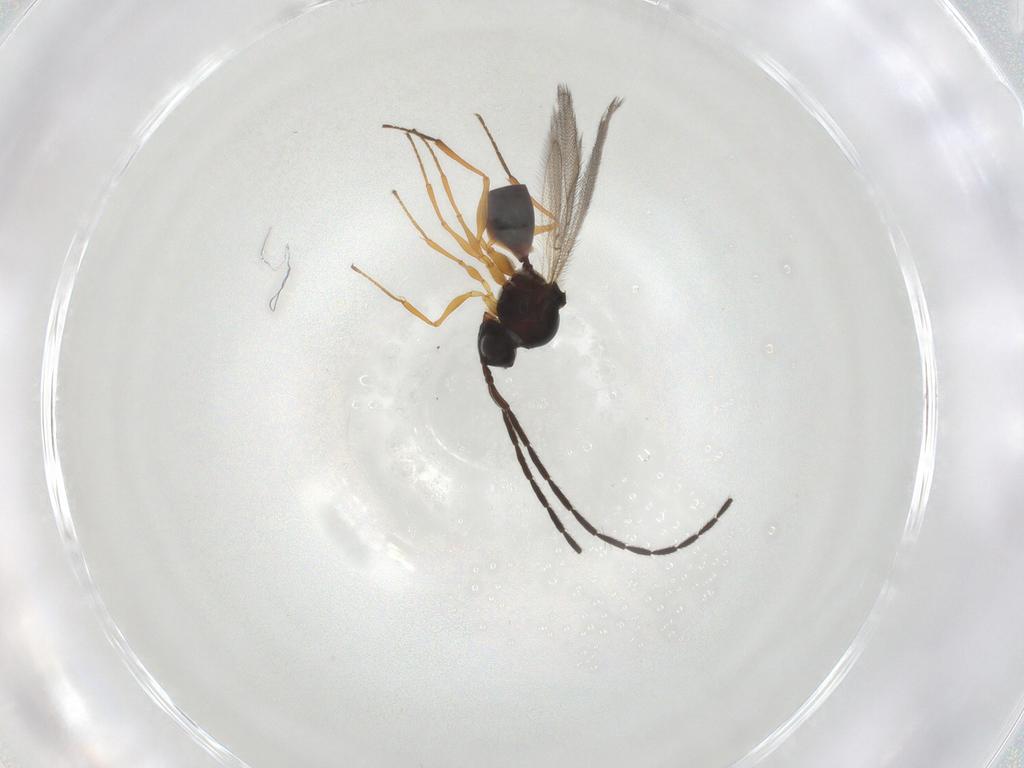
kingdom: Animalia
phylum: Arthropoda
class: Insecta
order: Hymenoptera
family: Figitidae
